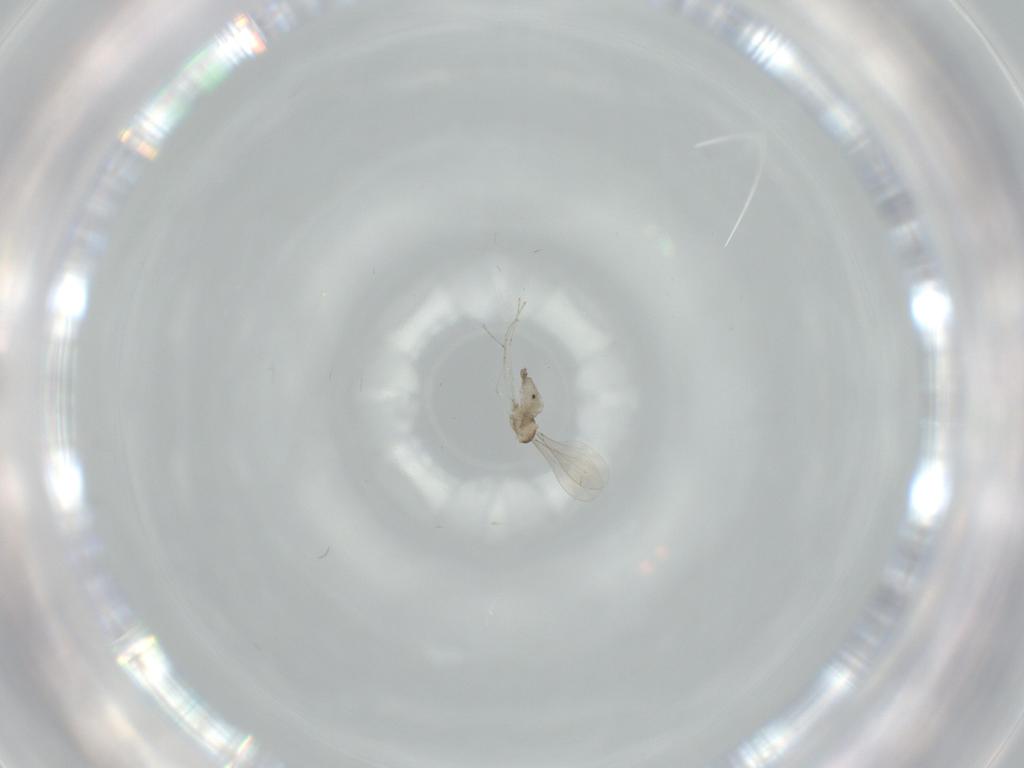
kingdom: Animalia
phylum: Arthropoda
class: Insecta
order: Diptera
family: Cecidomyiidae
